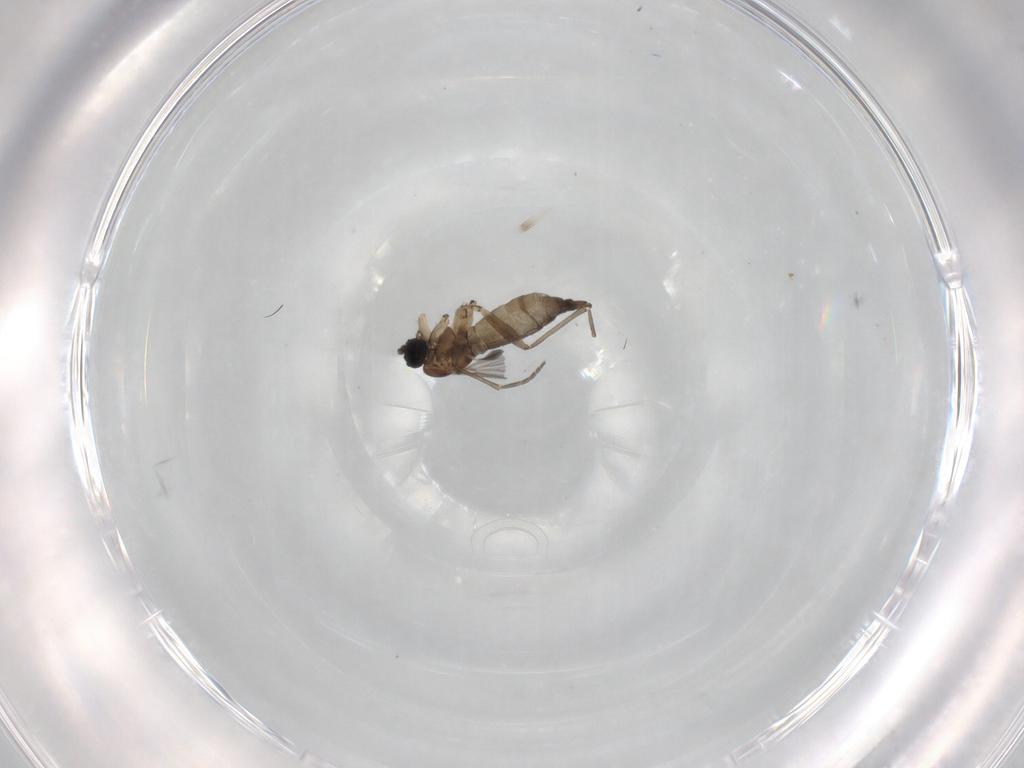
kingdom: Animalia
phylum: Arthropoda
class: Insecta
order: Diptera
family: Sciaridae
